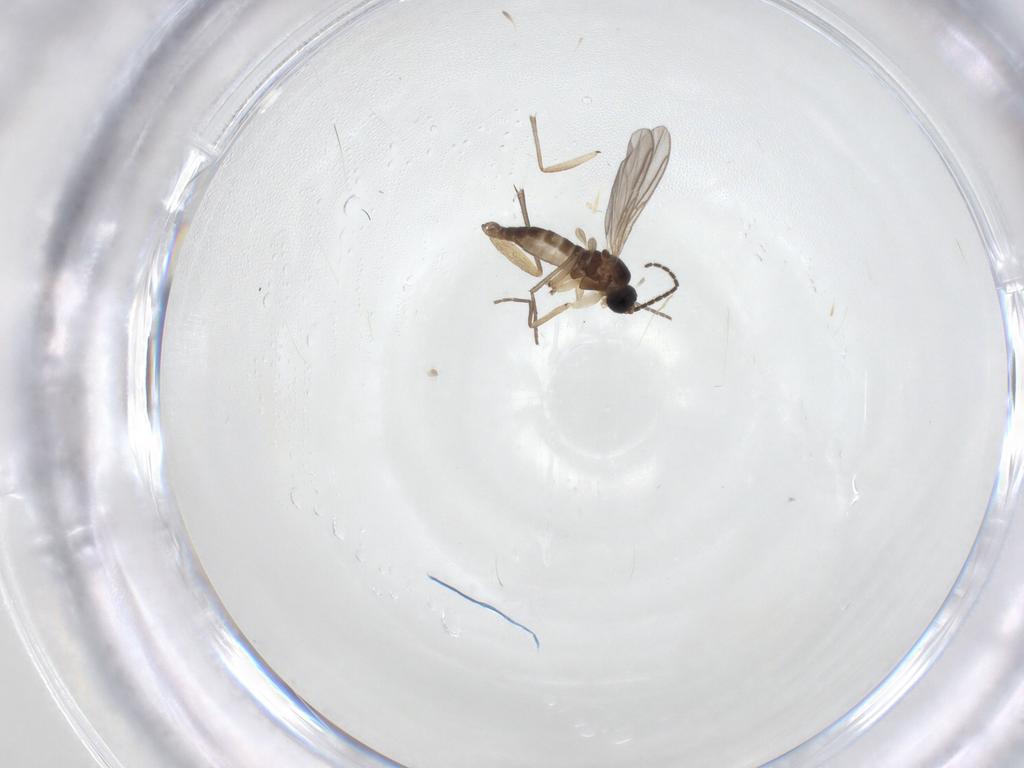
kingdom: Animalia
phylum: Arthropoda
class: Insecta
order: Diptera
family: Sciaridae
